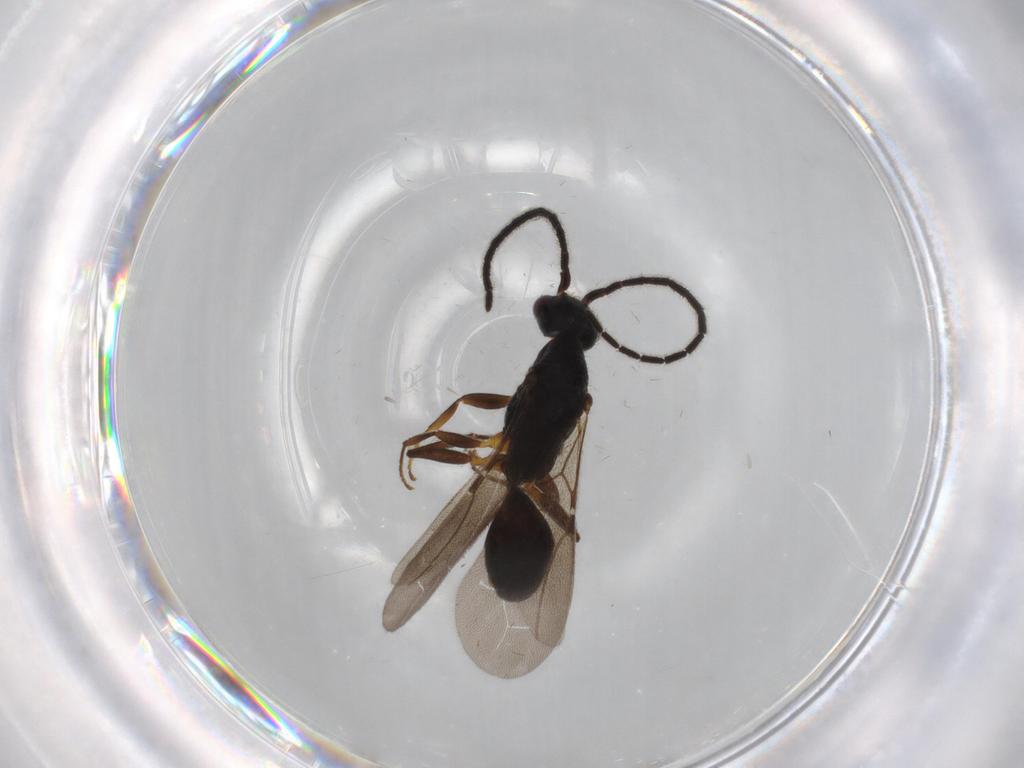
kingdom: Animalia
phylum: Arthropoda
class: Insecta
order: Hymenoptera
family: Bethylidae
